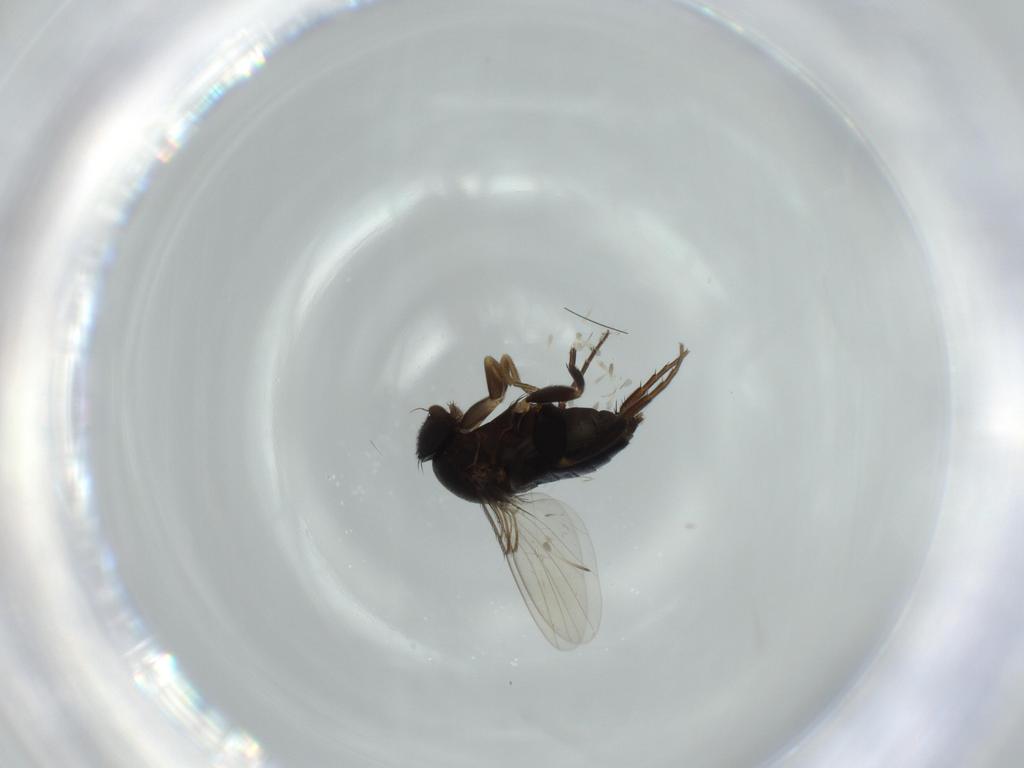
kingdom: Animalia
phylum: Arthropoda
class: Insecta
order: Diptera
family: Phoridae
